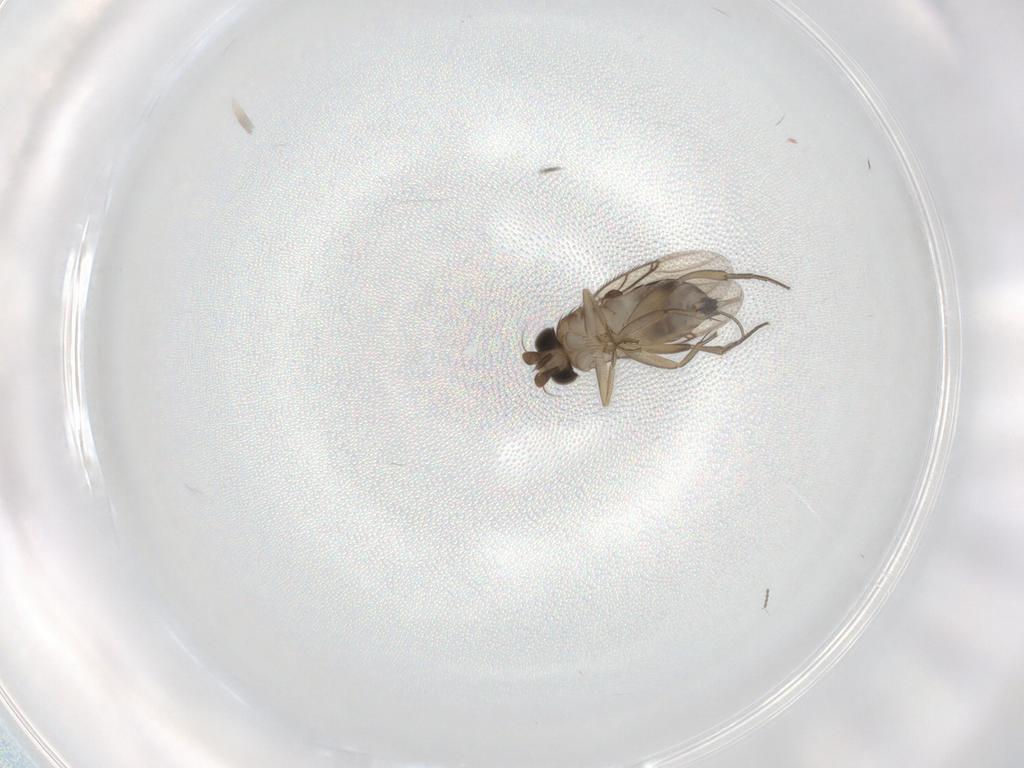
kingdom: Animalia
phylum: Arthropoda
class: Insecta
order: Diptera
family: Phoridae
